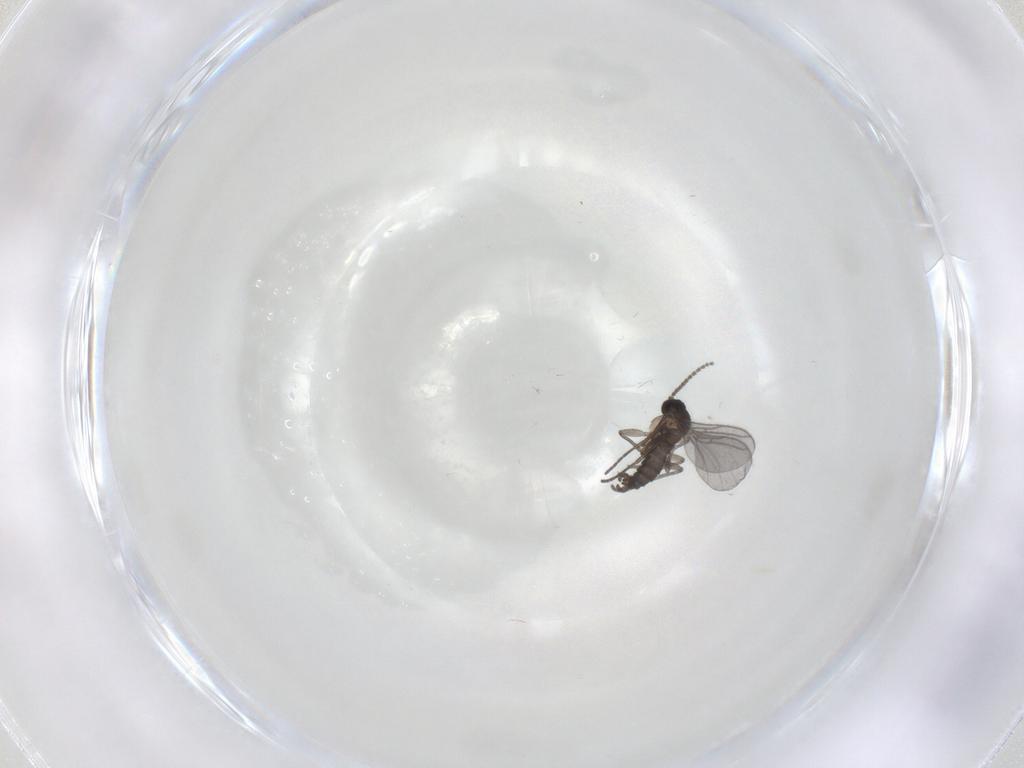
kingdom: Animalia
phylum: Arthropoda
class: Insecta
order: Diptera
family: Sciaridae
